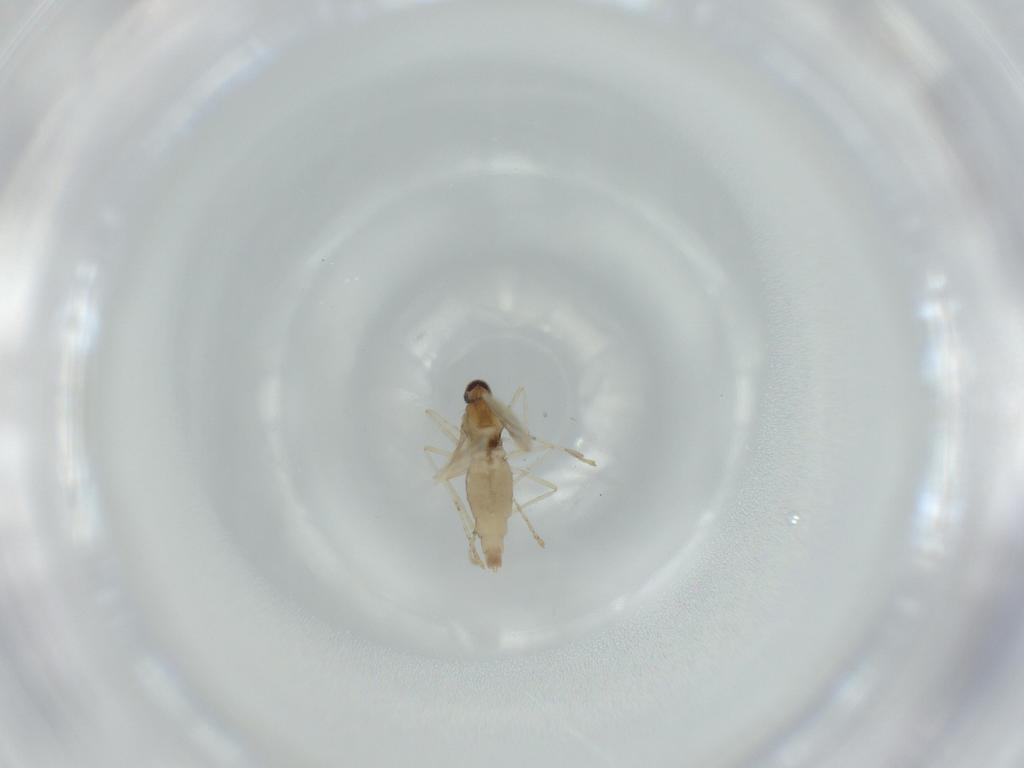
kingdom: Animalia
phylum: Arthropoda
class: Insecta
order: Diptera
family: Cecidomyiidae
